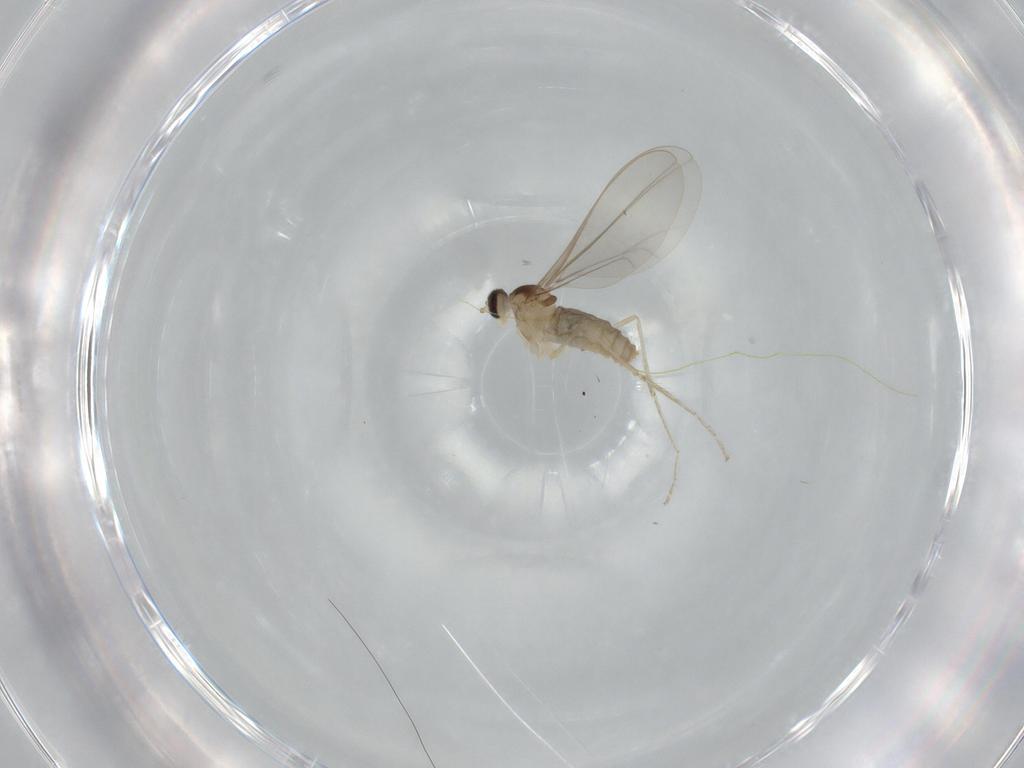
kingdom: Animalia
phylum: Arthropoda
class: Insecta
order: Diptera
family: Cecidomyiidae
